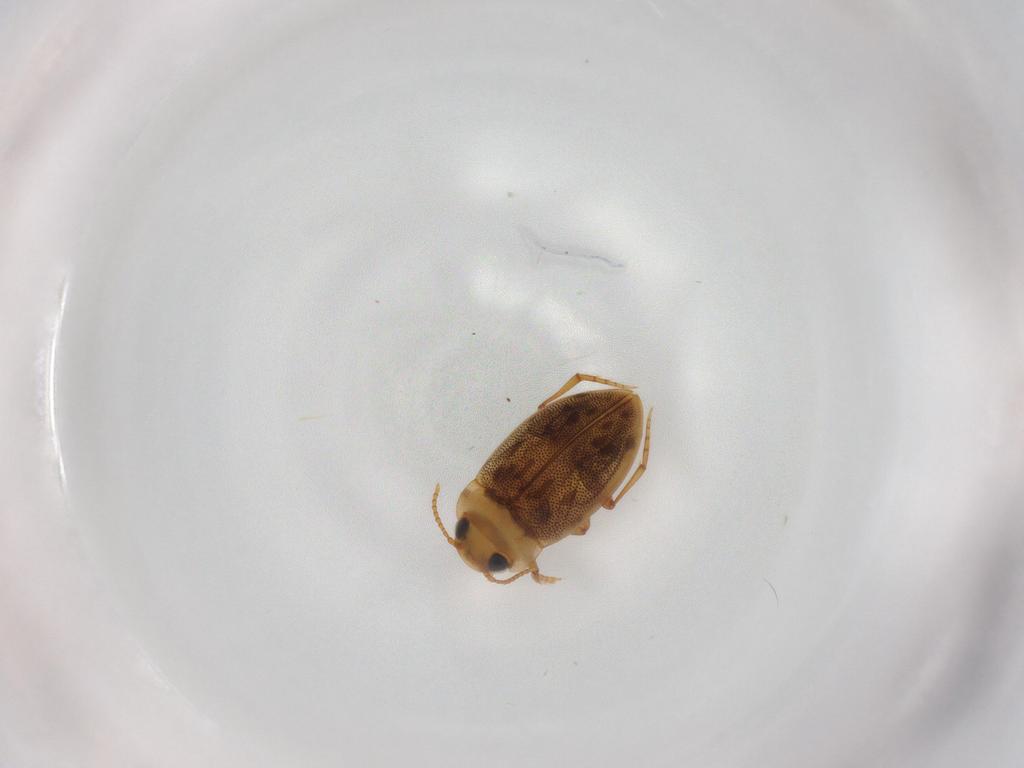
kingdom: Animalia
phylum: Arthropoda
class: Insecta
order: Coleoptera
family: Dytiscidae
